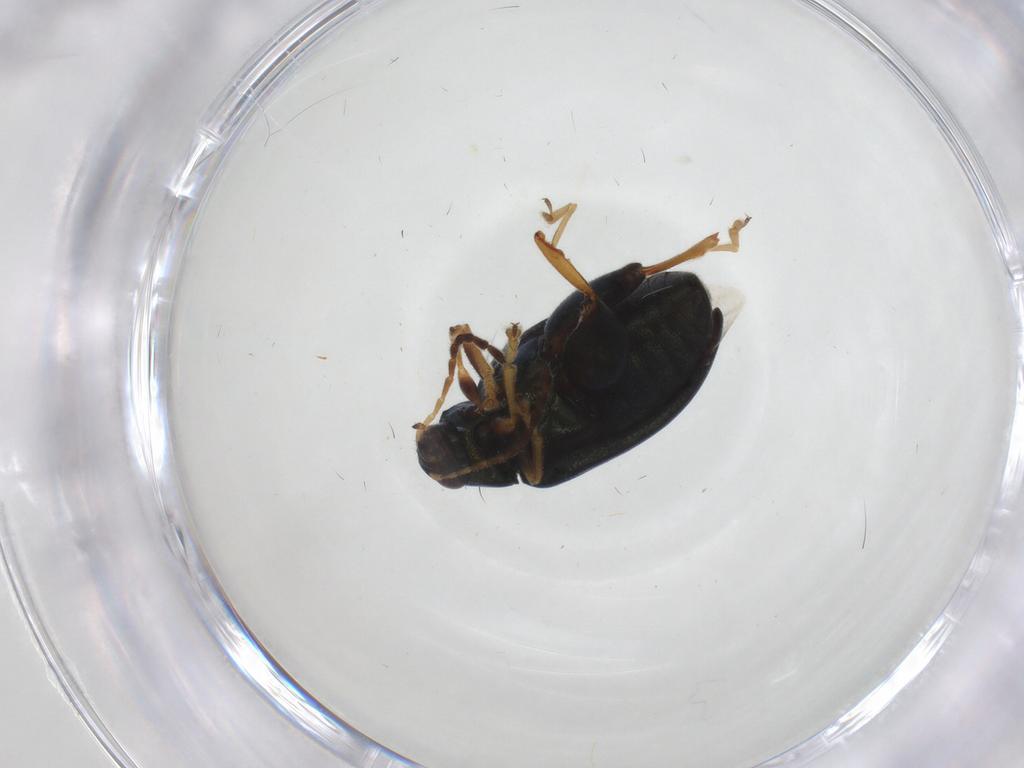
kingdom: Animalia
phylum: Arthropoda
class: Insecta
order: Coleoptera
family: Chrysomelidae
